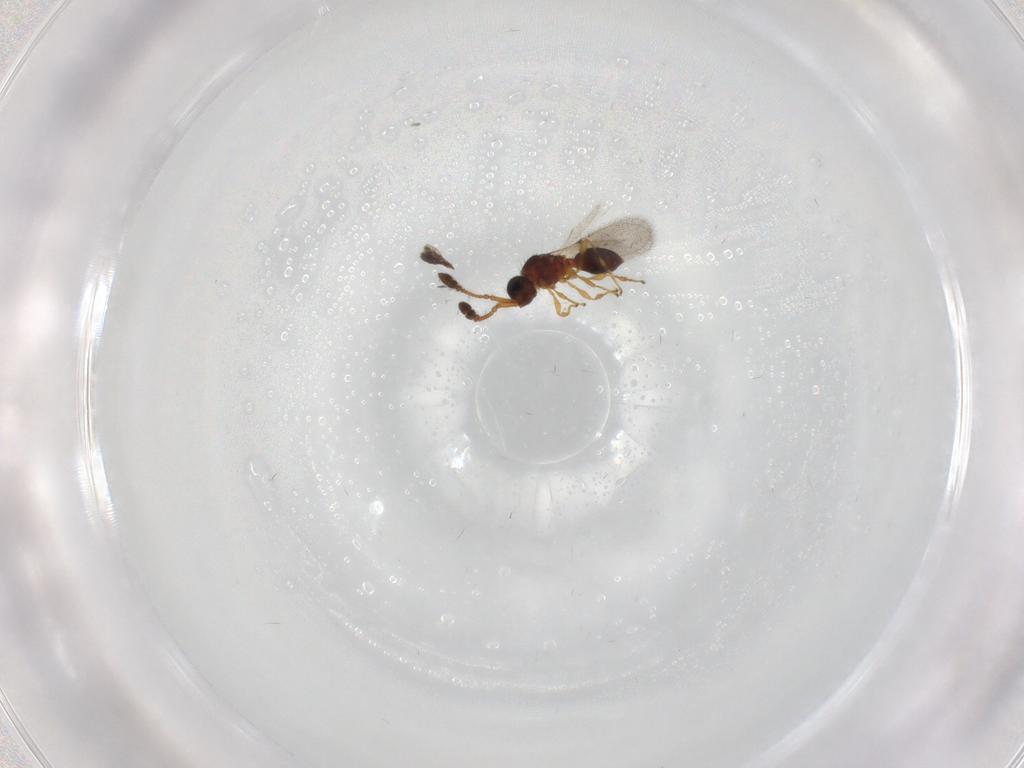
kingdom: Animalia
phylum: Arthropoda
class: Insecta
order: Hymenoptera
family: Diapriidae
